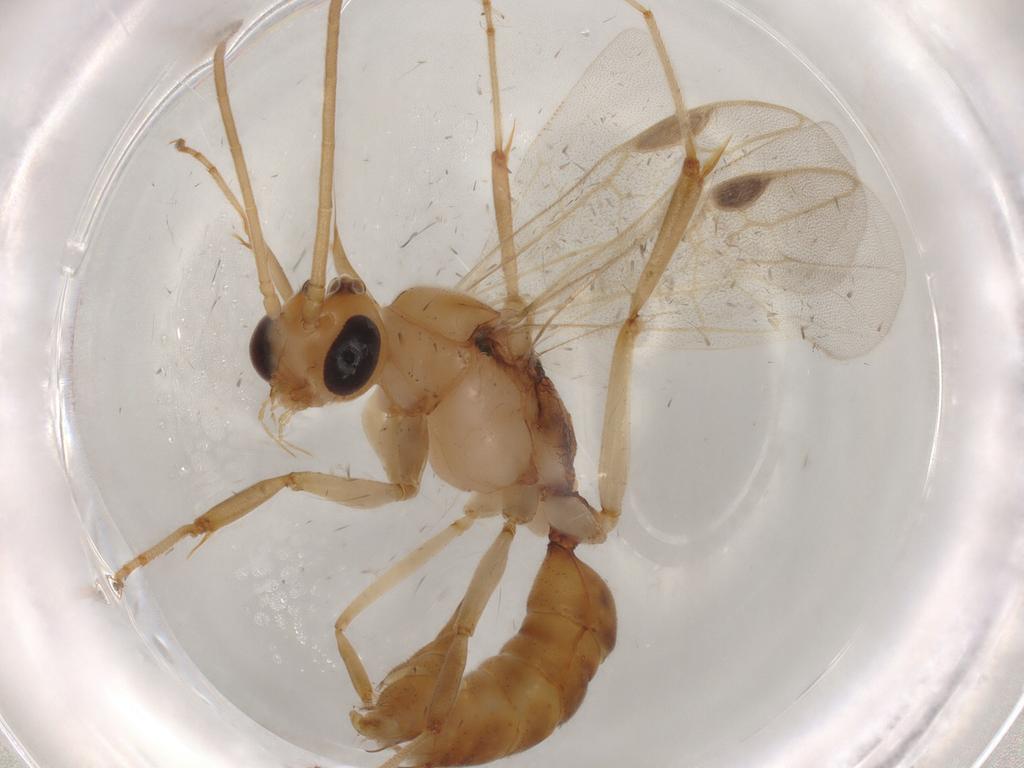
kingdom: Animalia
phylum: Arthropoda
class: Insecta
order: Hymenoptera
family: Formicidae
